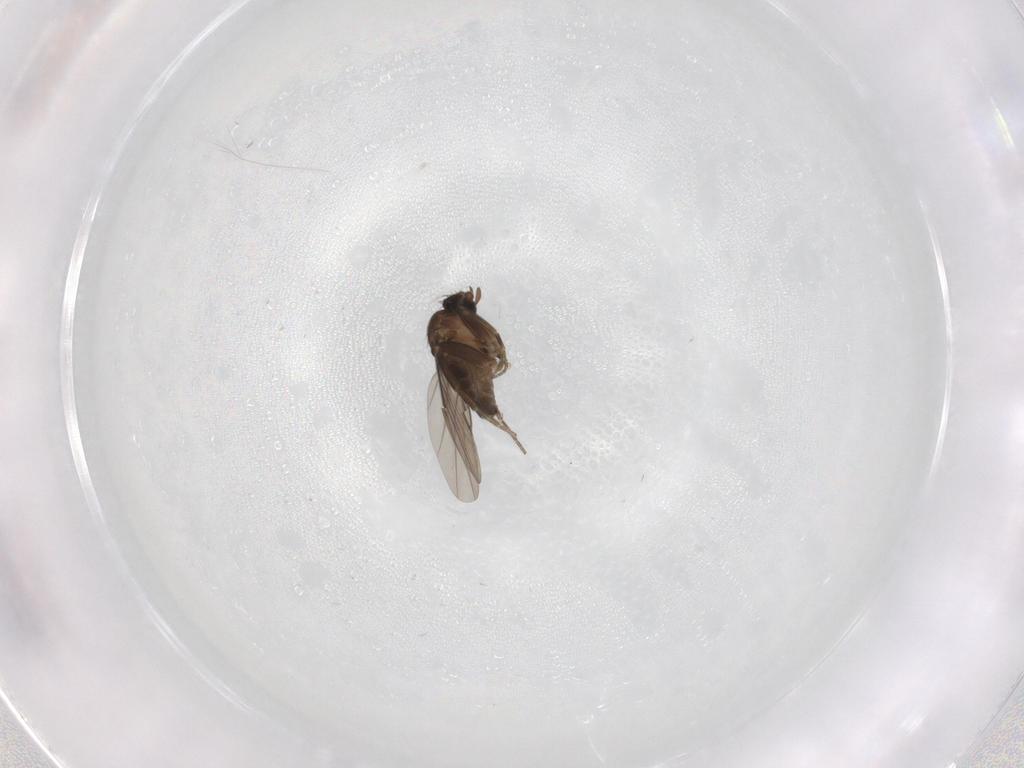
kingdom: Animalia
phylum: Arthropoda
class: Insecta
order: Diptera
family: Phoridae
